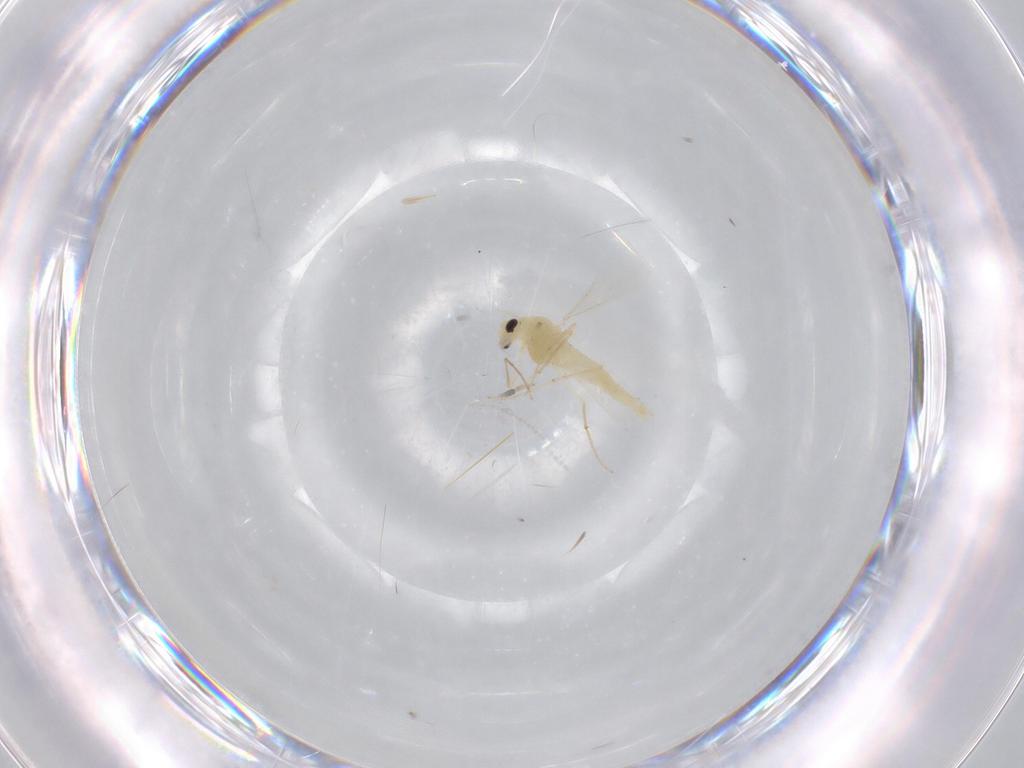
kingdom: Animalia
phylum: Arthropoda
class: Insecta
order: Diptera
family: Chironomidae
